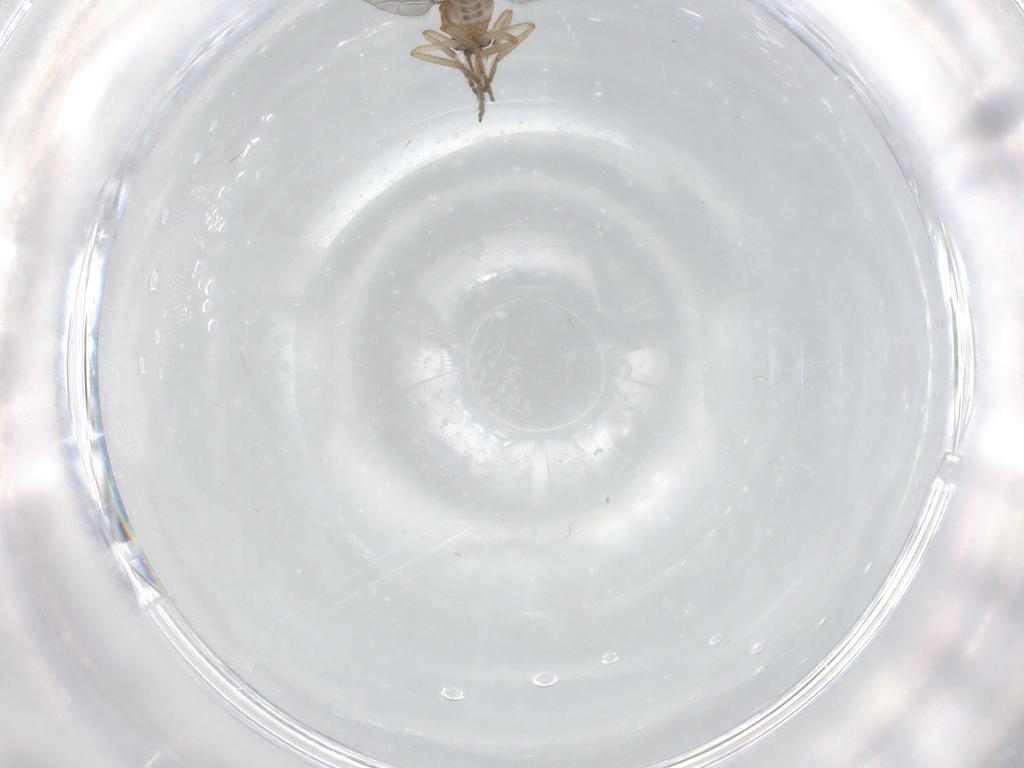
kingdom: Animalia
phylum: Arthropoda
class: Insecta
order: Diptera
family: Ceratopogonidae
